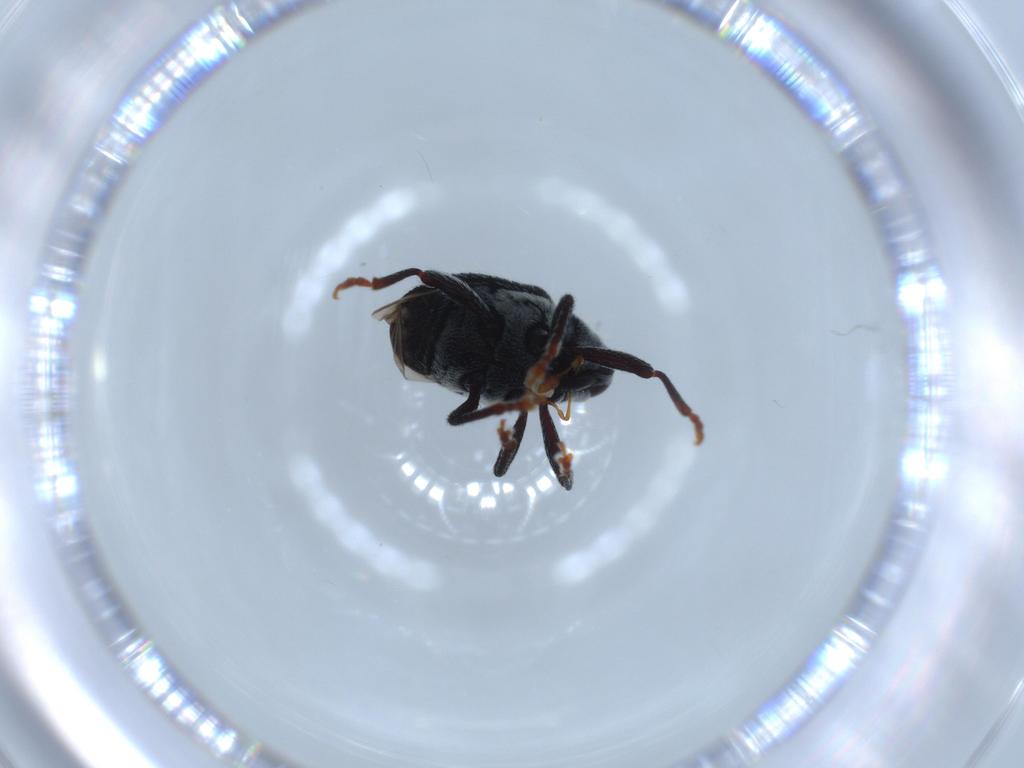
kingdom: Animalia
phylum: Arthropoda
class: Insecta
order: Coleoptera
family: Curculionidae
